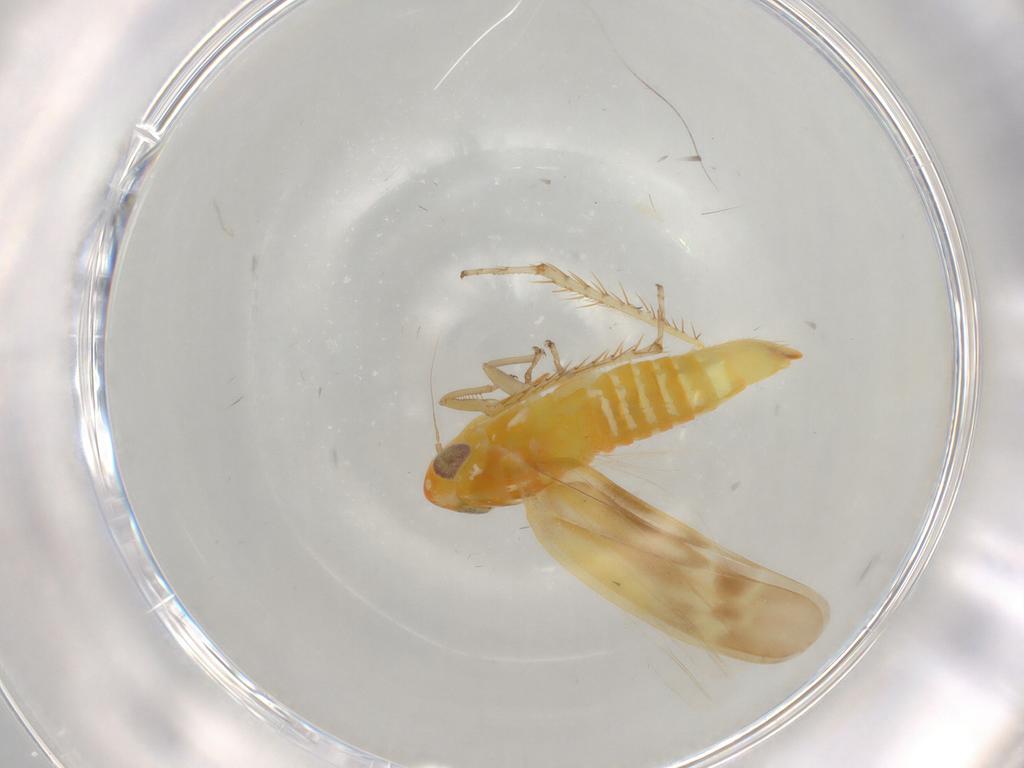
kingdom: Animalia
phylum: Arthropoda
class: Insecta
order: Hemiptera
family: Cicadellidae
